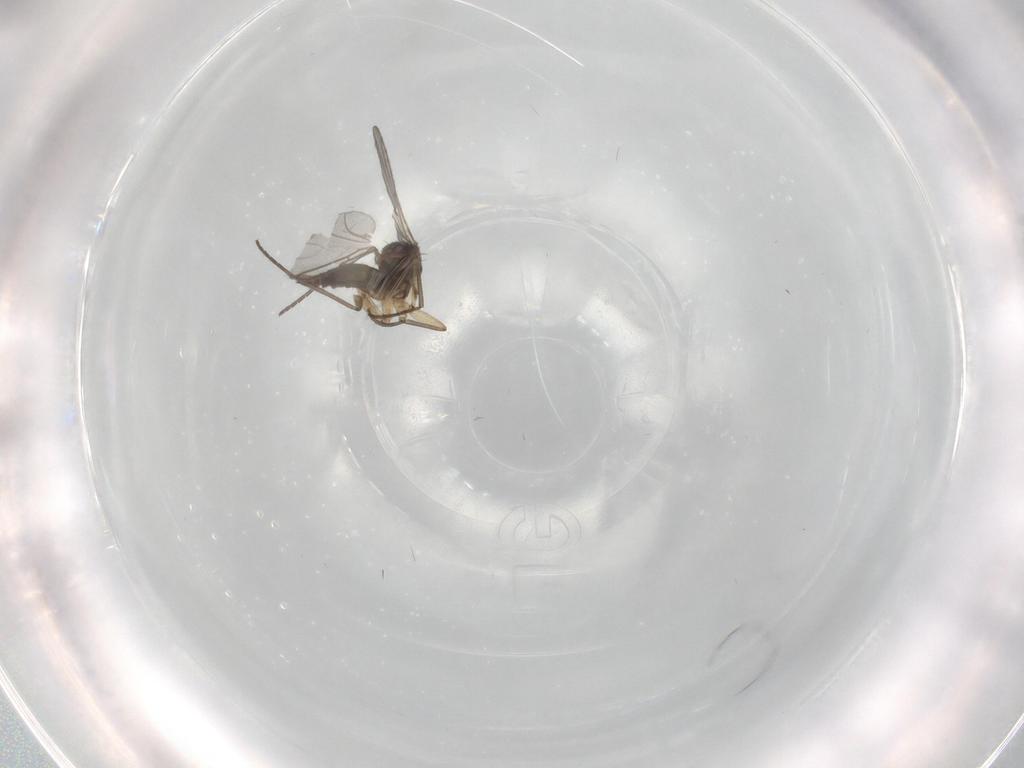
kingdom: Animalia
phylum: Arthropoda
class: Insecta
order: Diptera
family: Sciaridae
